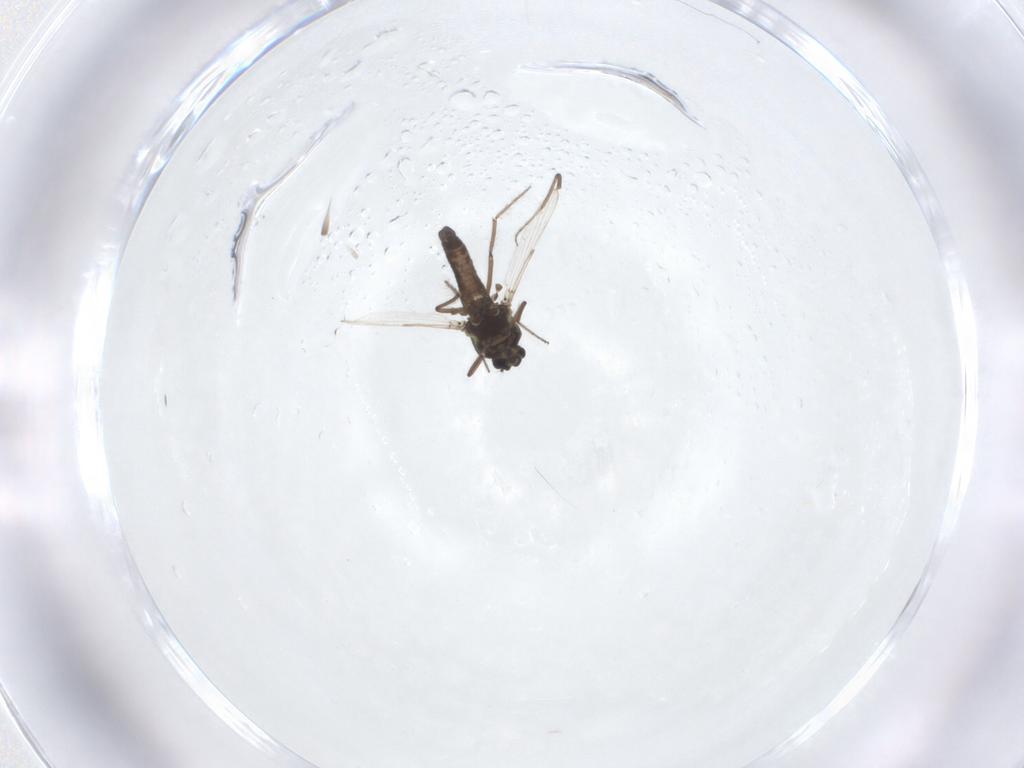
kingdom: Animalia
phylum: Arthropoda
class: Insecta
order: Diptera
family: Ceratopogonidae
